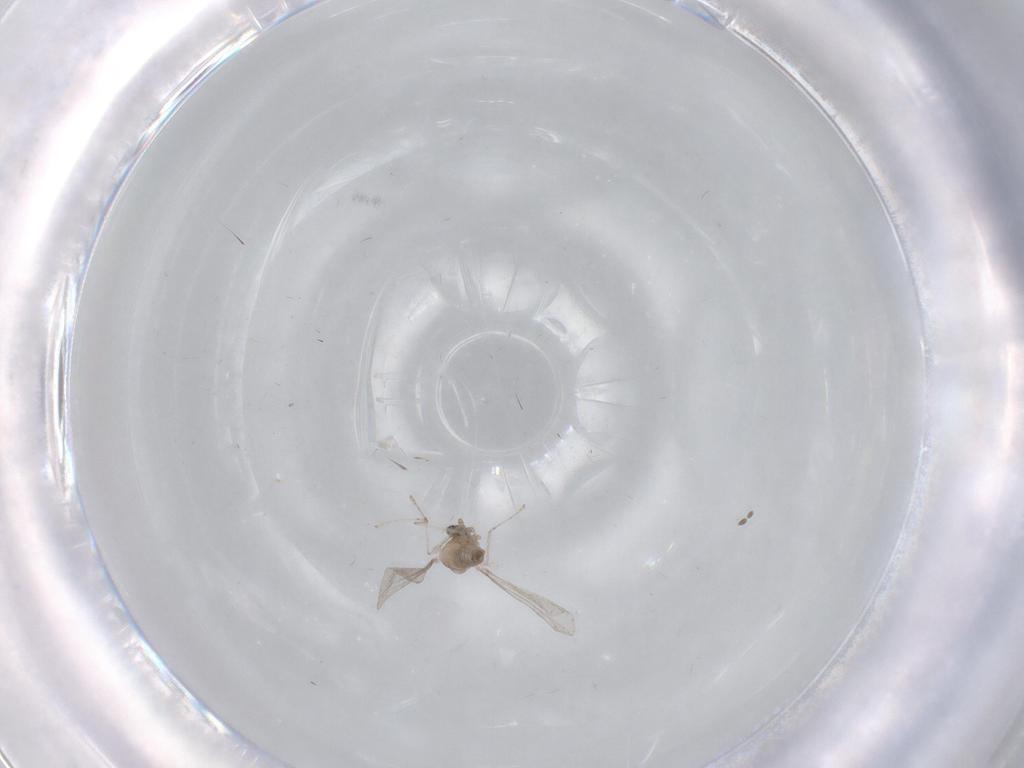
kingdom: Animalia
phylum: Arthropoda
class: Insecta
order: Diptera
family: Cecidomyiidae
